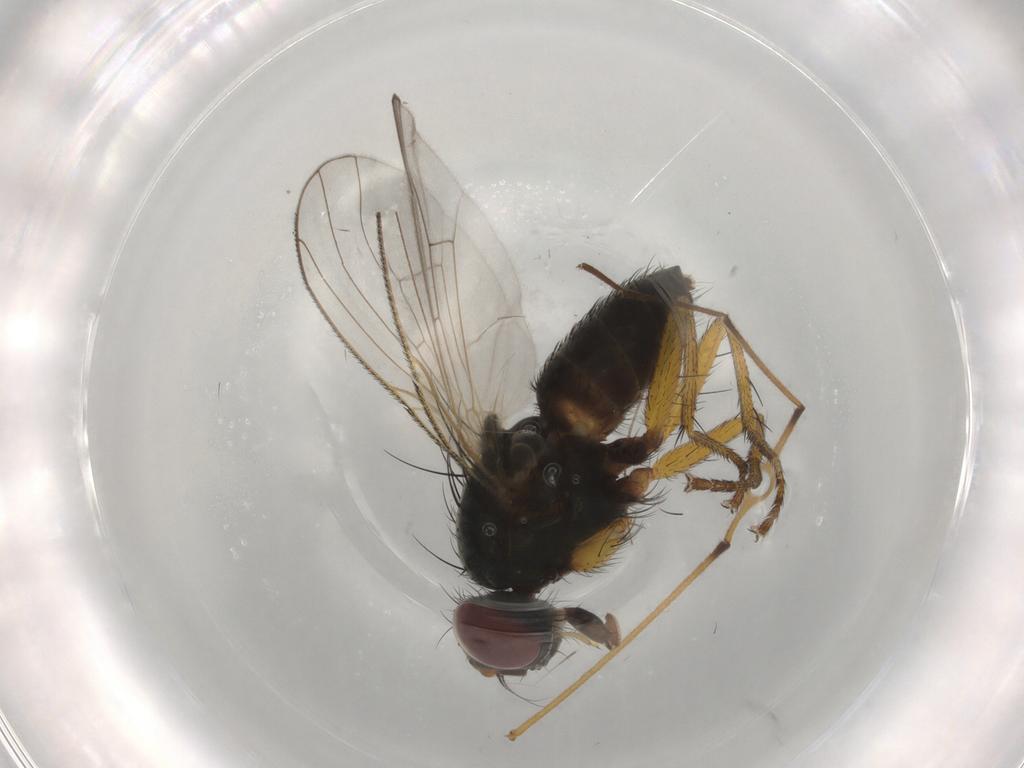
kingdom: Animalia
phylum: Arthropoda
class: Insecta
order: Diptera
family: Muscidae
